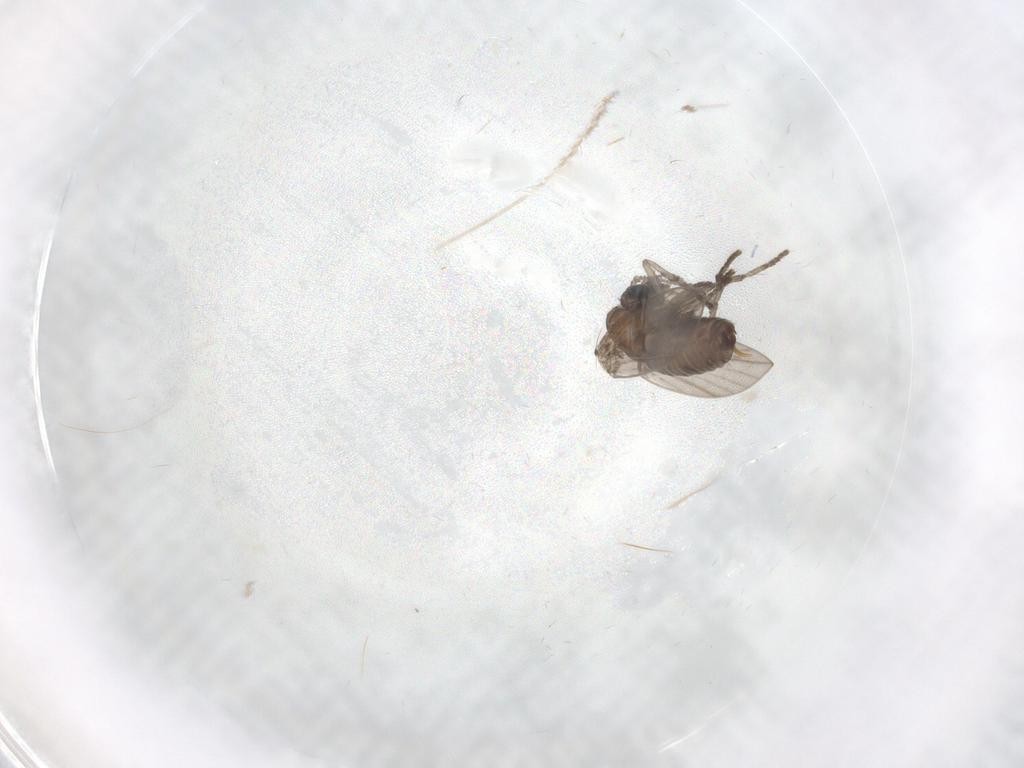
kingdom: Animalia
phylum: Arthropoda
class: Insecta
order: Diptera
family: Psychodidae
